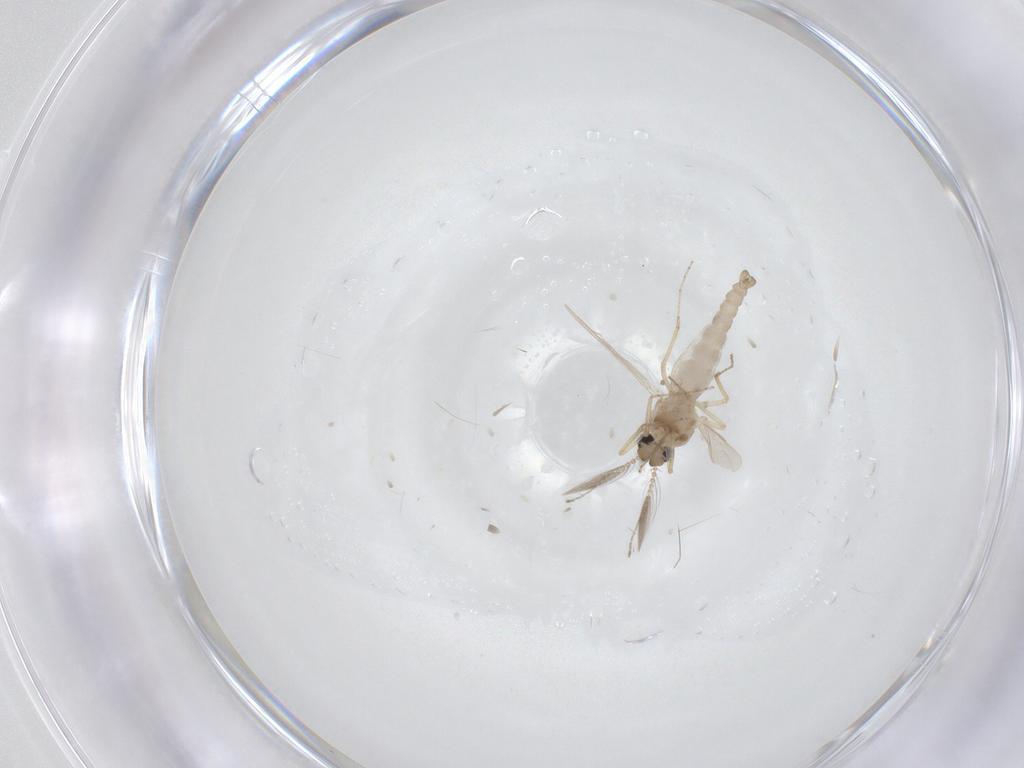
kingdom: Animalia
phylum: Arthropoda
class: Insecta
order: Diptera
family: Ceratopogonidae
